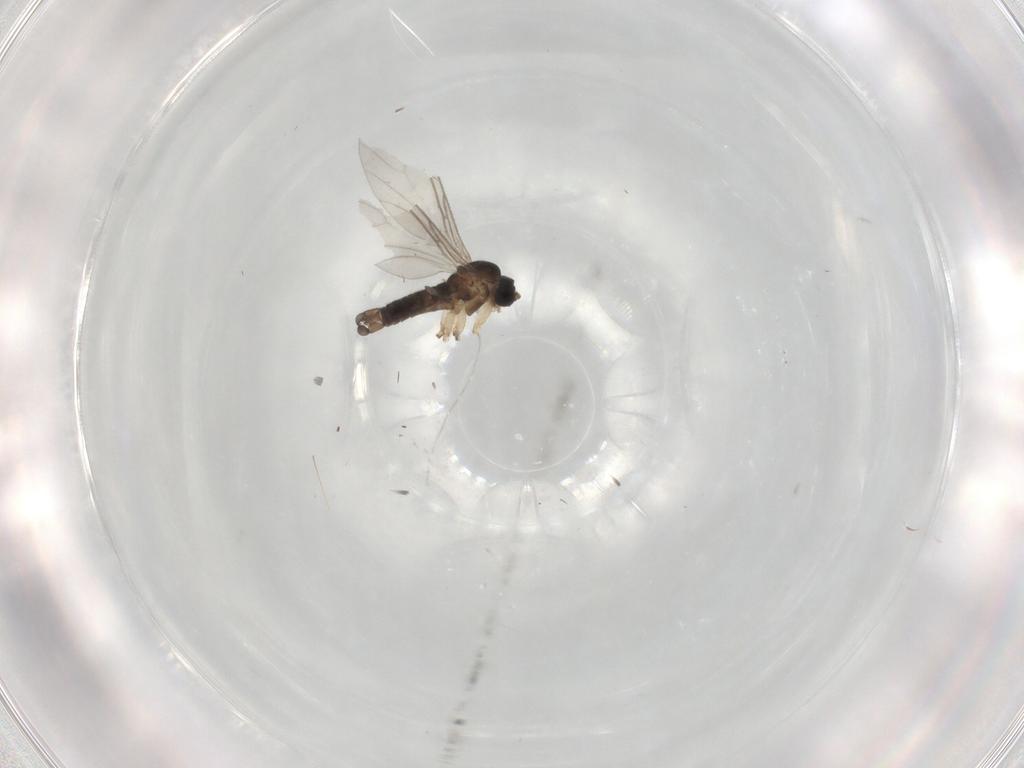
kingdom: Animalia
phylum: Arthropoda
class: Insecta
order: Diptera
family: Sciaridae
